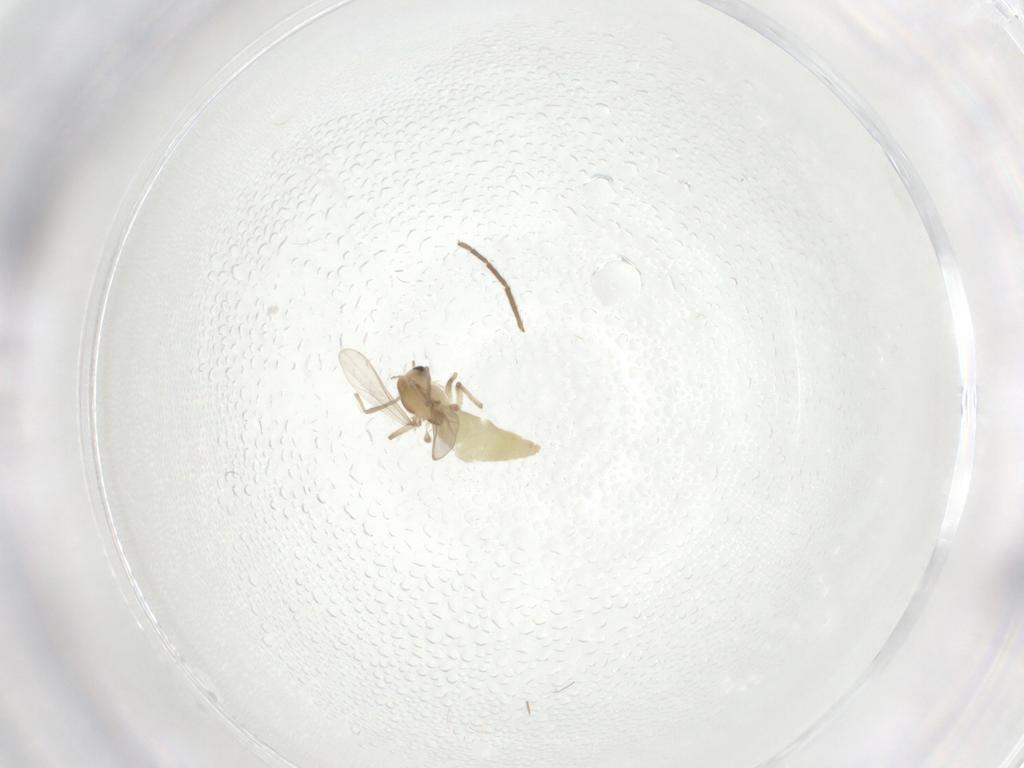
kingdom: Animalia
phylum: Arthropoda
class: Insecta
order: Diptera
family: Chironomidae
